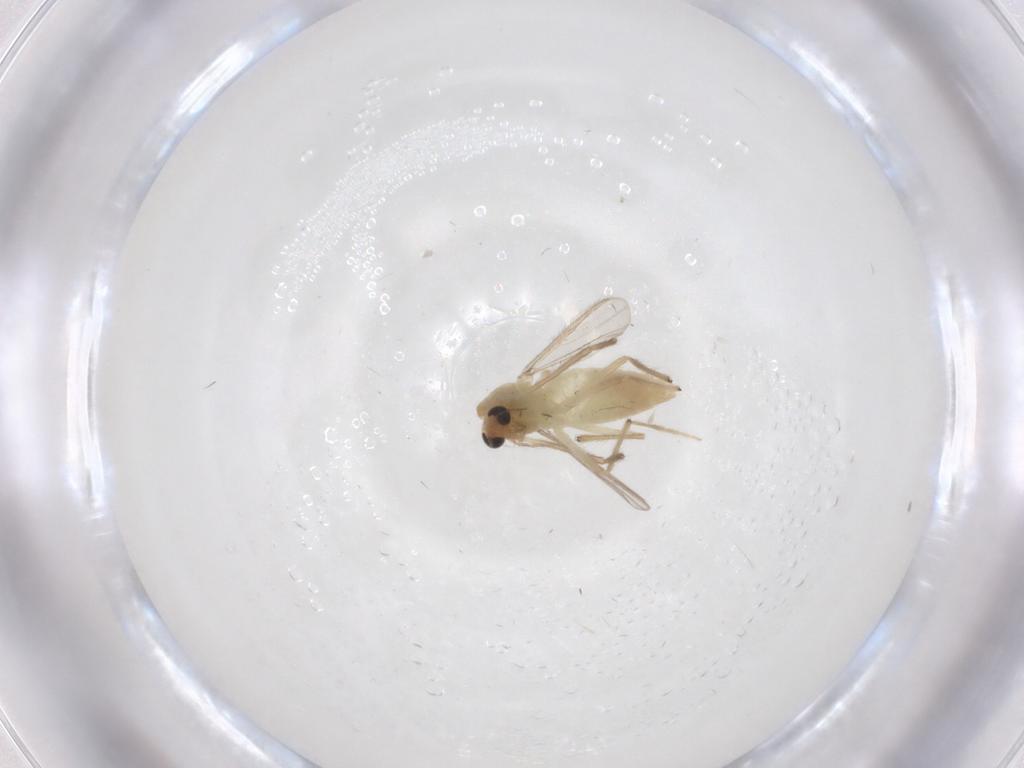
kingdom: Animalia
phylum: Arthropoda
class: Insecta
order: Diptera
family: Chironomidae
